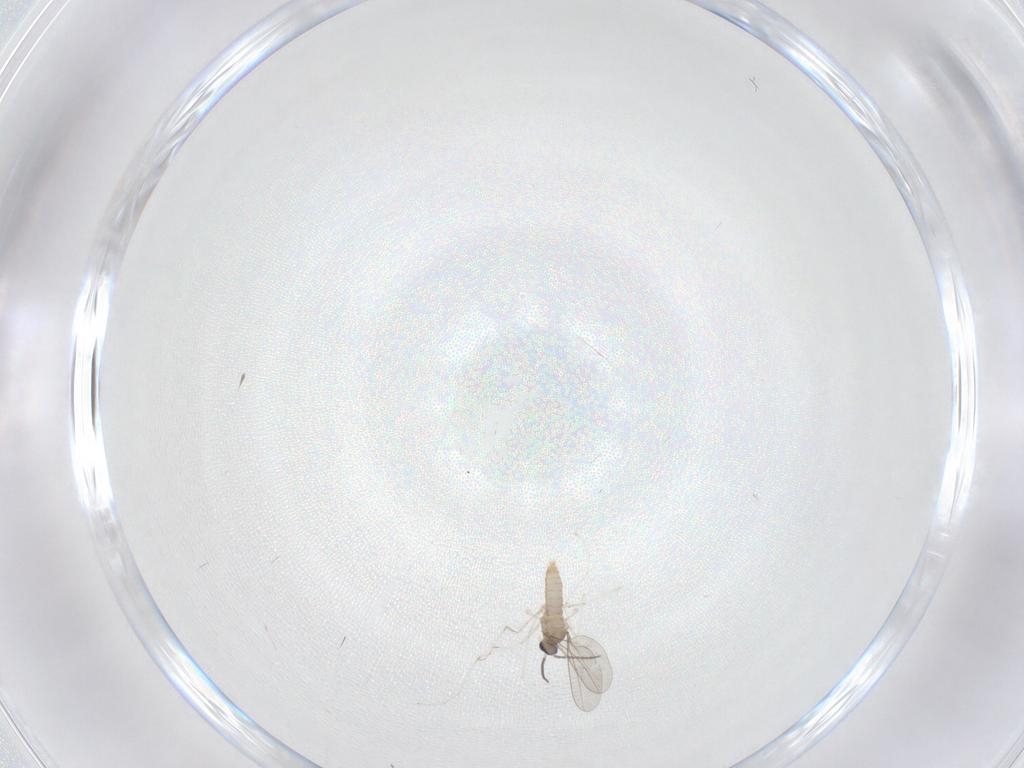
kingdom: Animalia
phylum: Arthropoda
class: Insecta
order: Diptera
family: Cecidomyiidae
